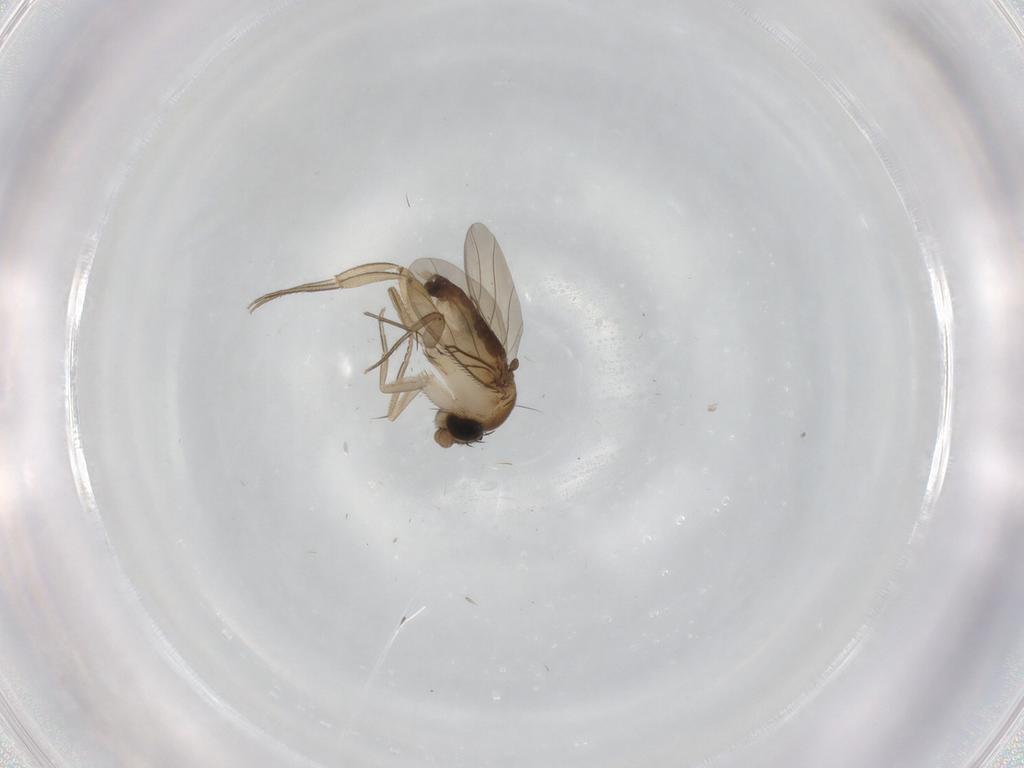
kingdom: Animalia
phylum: Arthropoda
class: Insecta
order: Diptera
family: Phoridae
